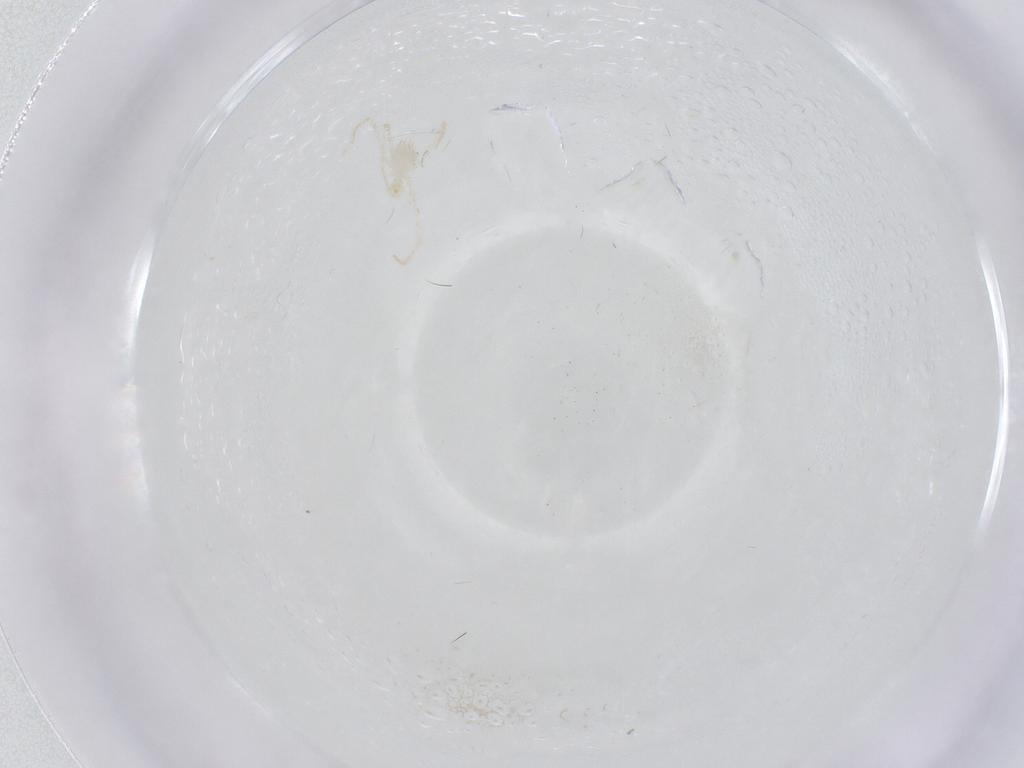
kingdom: Animalia
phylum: Arthropoda
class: Arachnida
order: Trombidiformes
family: Erythraeidae
